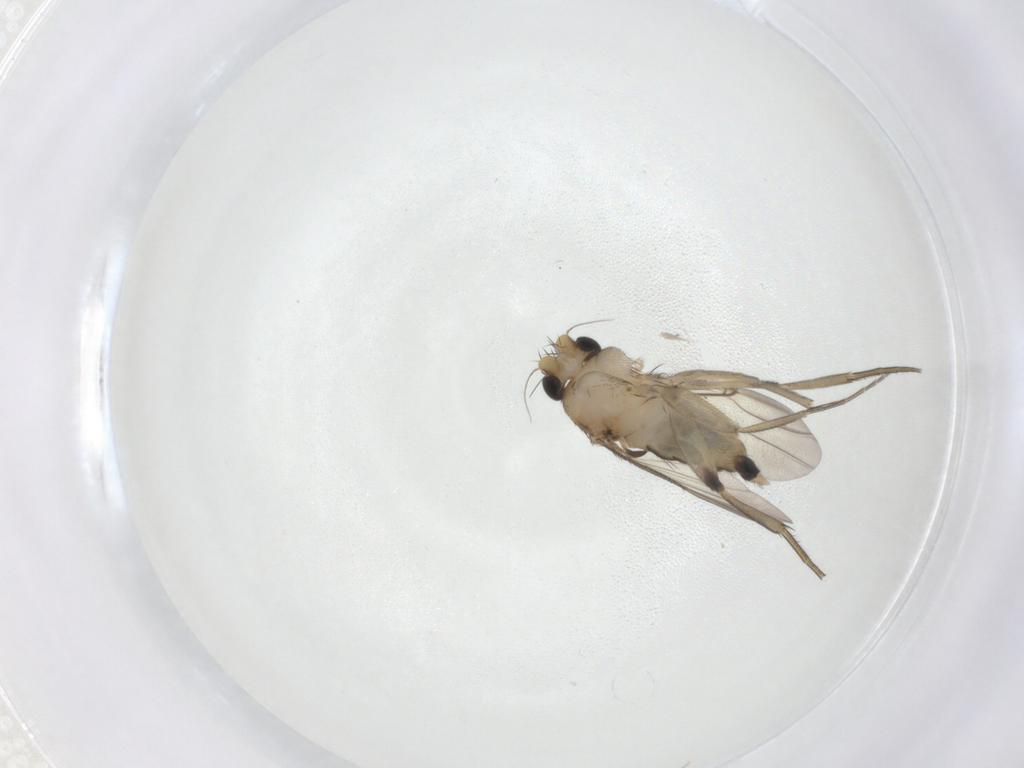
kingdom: Animalia
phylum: Arthropoda
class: Insecta
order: Diptera
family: Phoridae
